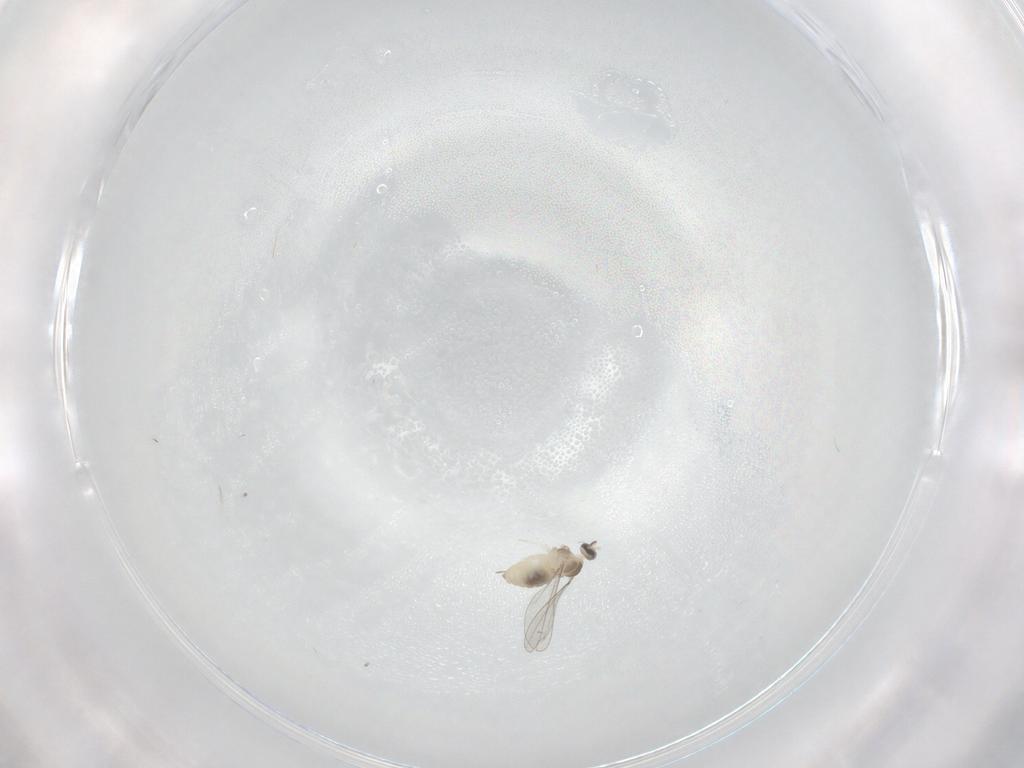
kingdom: Animalia
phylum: Arthropoda
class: Insecta
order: Diptera
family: Cecidomyiidae
